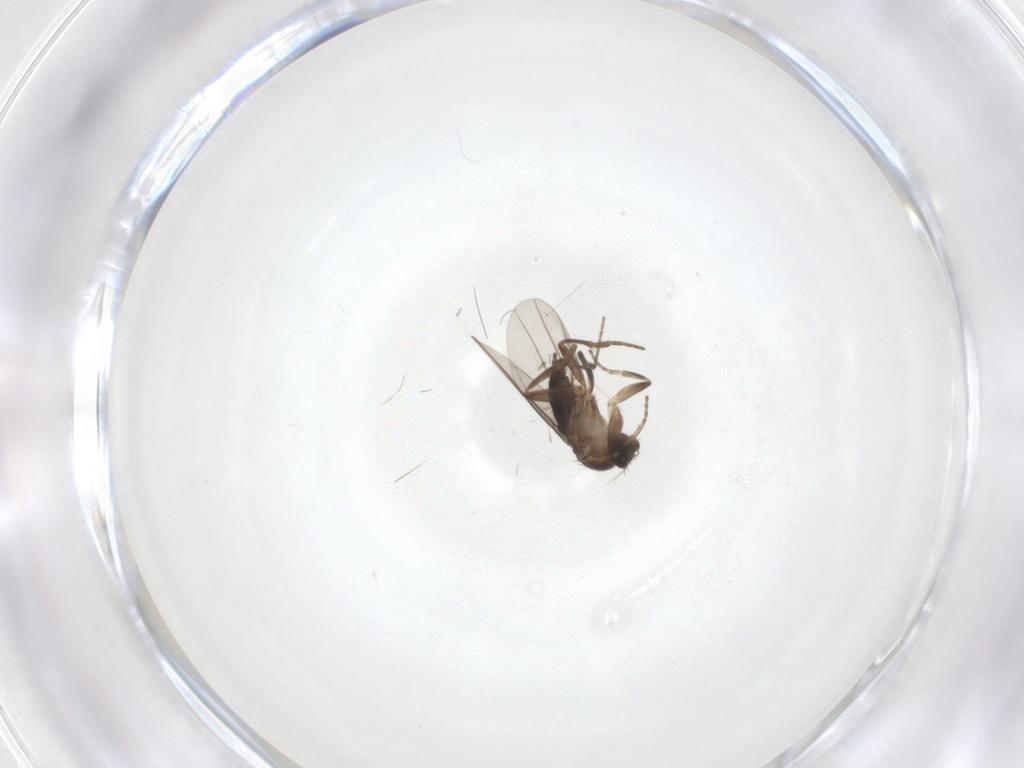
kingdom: Animalia
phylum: Arthropoda
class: Insecta
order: Diptera
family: Phoridae
